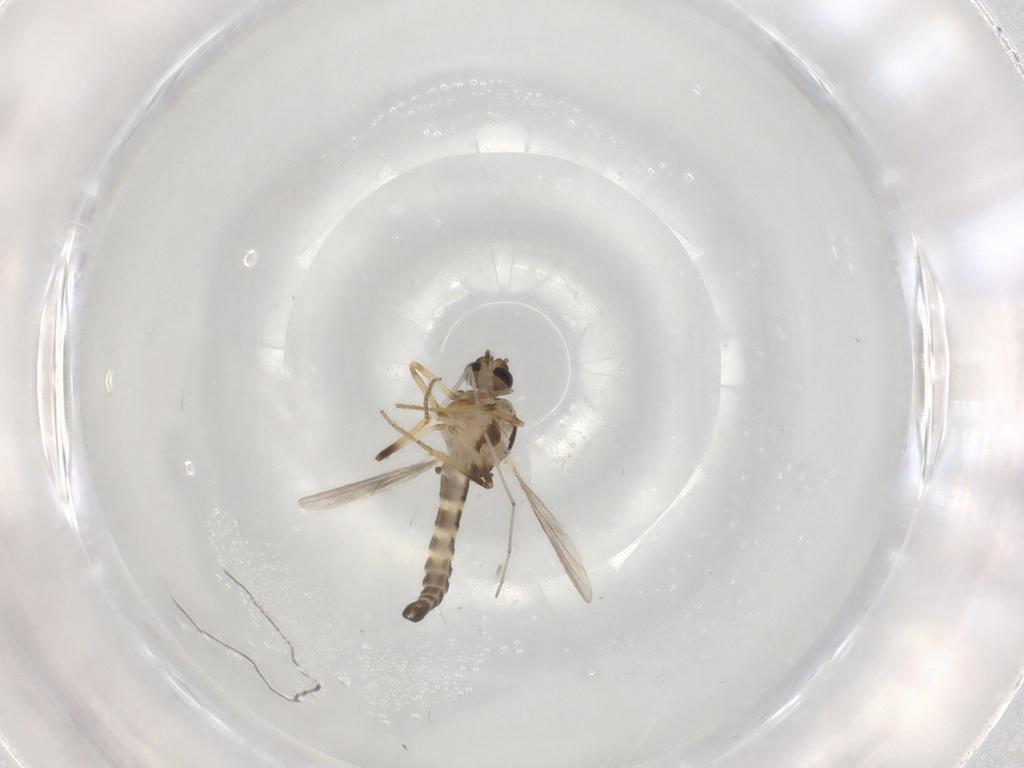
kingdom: Animalia
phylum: Arthropoda
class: Insecta
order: Diptera
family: Ceratopogonidae
